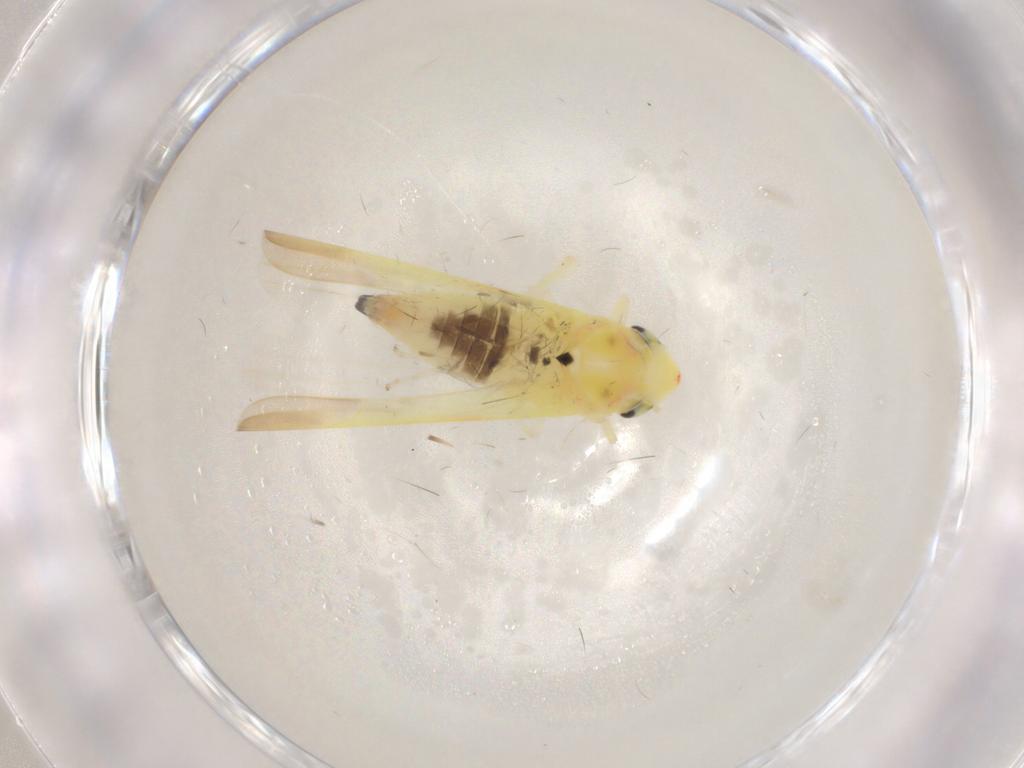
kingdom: Animalia
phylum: Arthropoda
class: Insecta
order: Hemiptera
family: Cicadellidae
